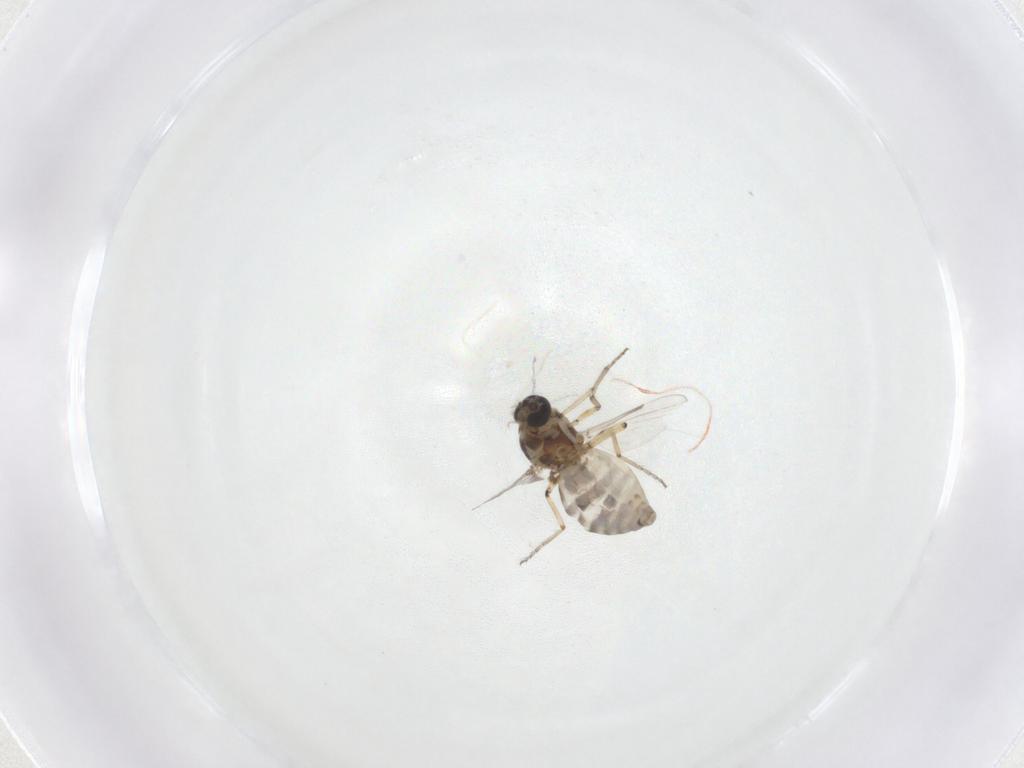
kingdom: Animalia
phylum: Arthropoda
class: Insecta
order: Diptera
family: Ceratopogonidae
